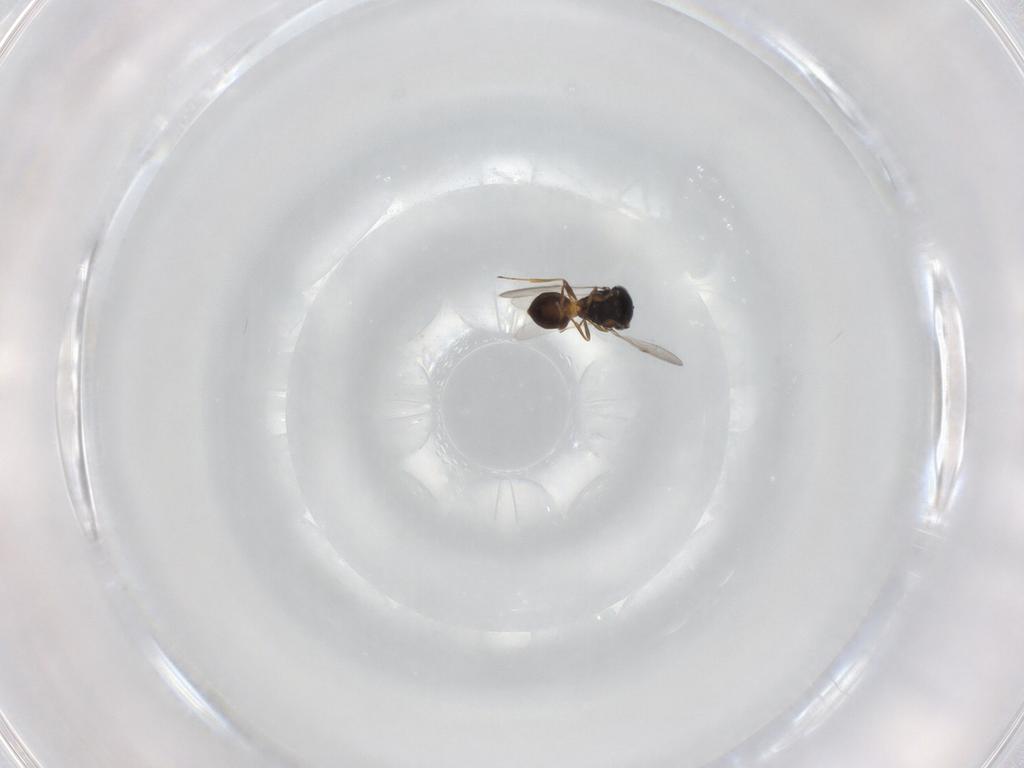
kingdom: Animalia
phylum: Arthropoda
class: Insecta
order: Hymenoptera
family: Scelionidae
